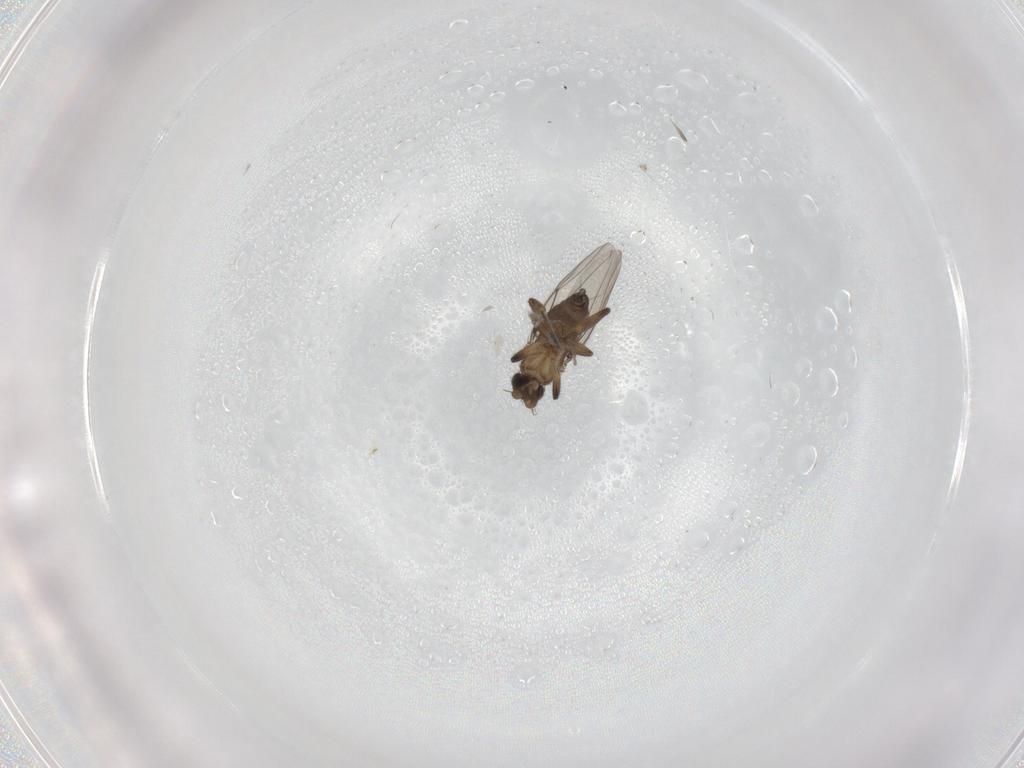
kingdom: Animalia
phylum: Arthropoda
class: Insecta
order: Diptera
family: Phoridae
